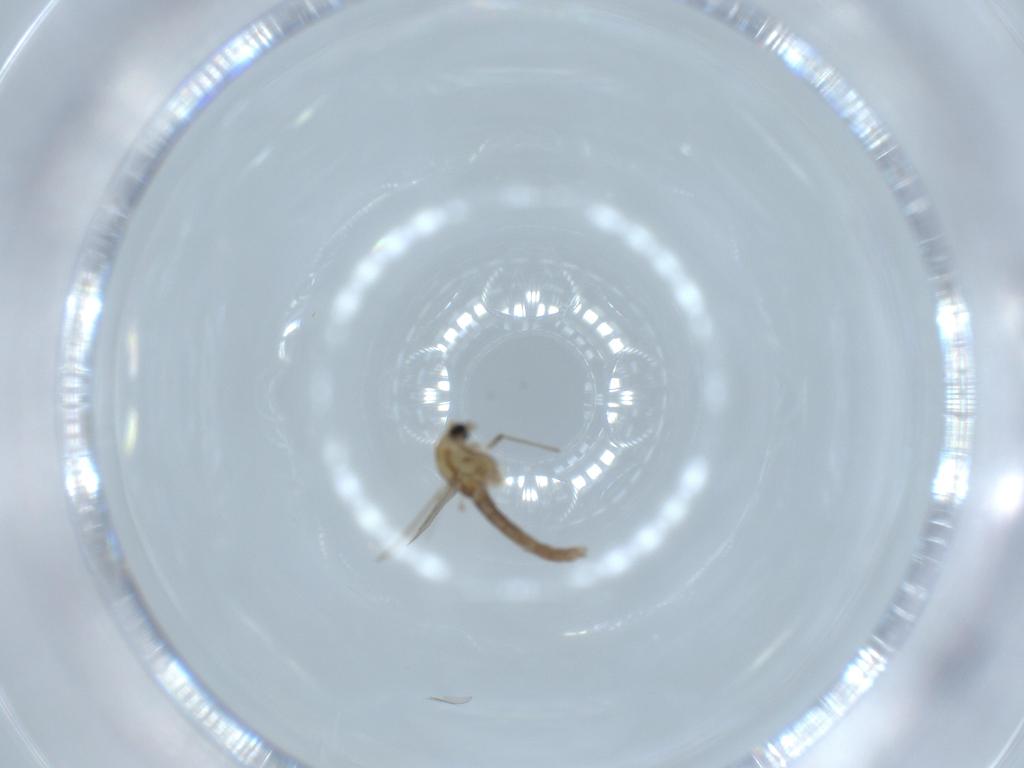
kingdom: Animalia
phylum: Arthropoda
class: Insecta
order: Diptera
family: Chironomidae
